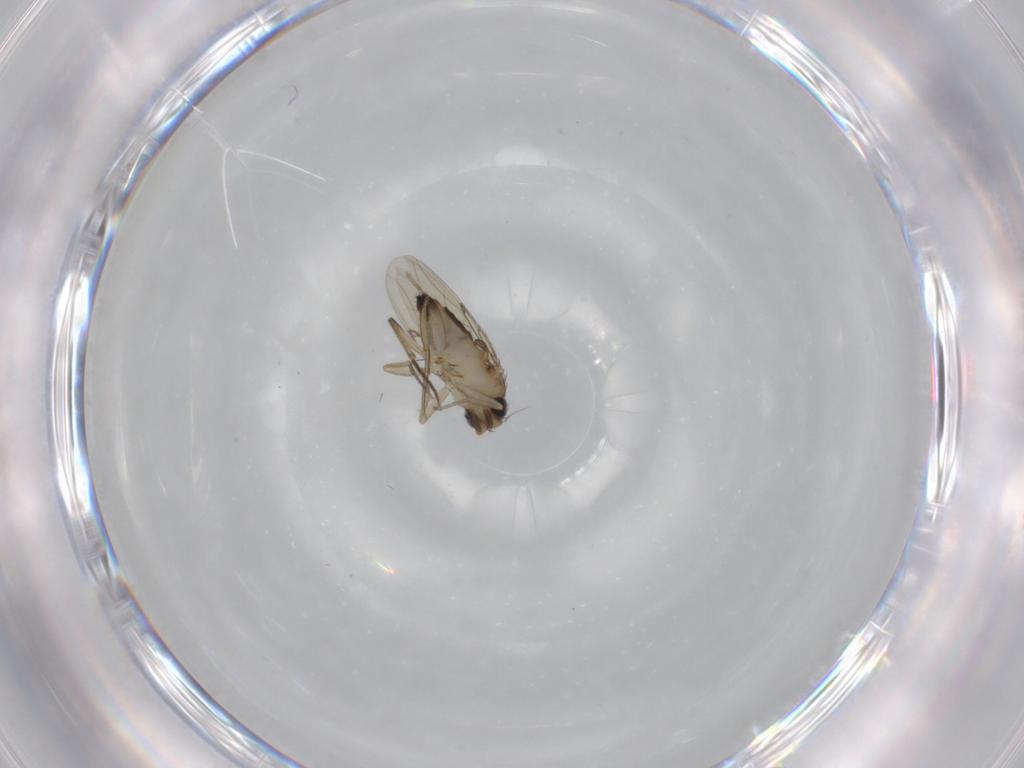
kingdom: Animalia
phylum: Arthropoda
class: Insecta
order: Diptera
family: Phoridae
